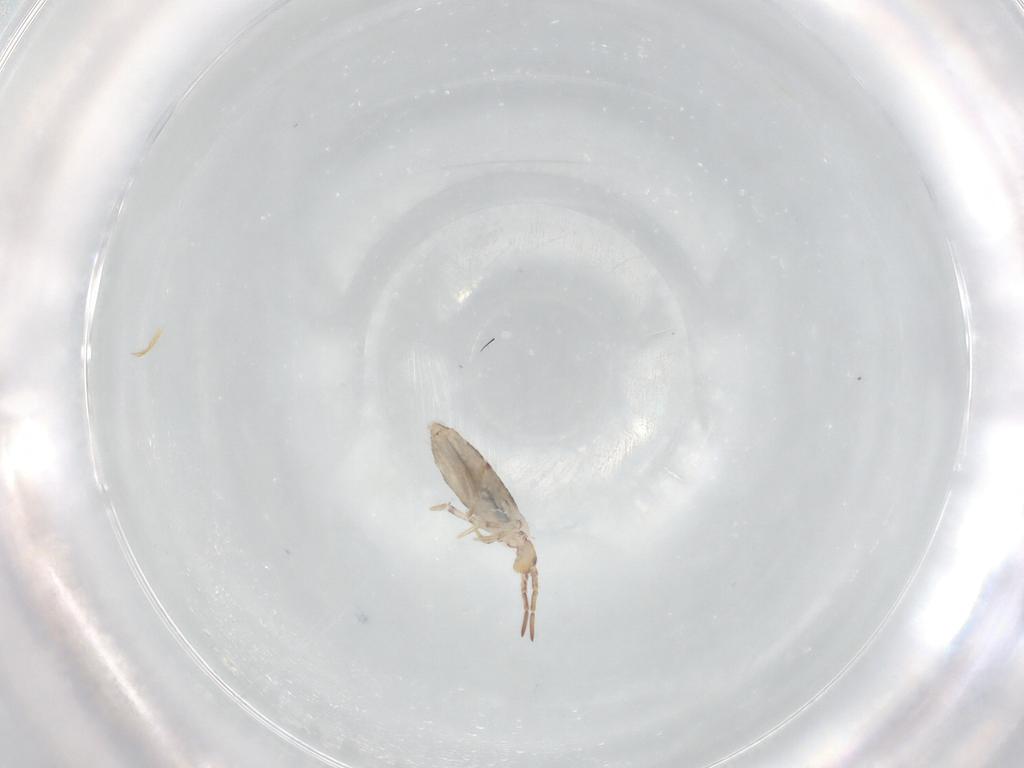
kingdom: Animalia
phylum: Arthropoda
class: Collembola
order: Entomobryomorpha
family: Entomobryidae
